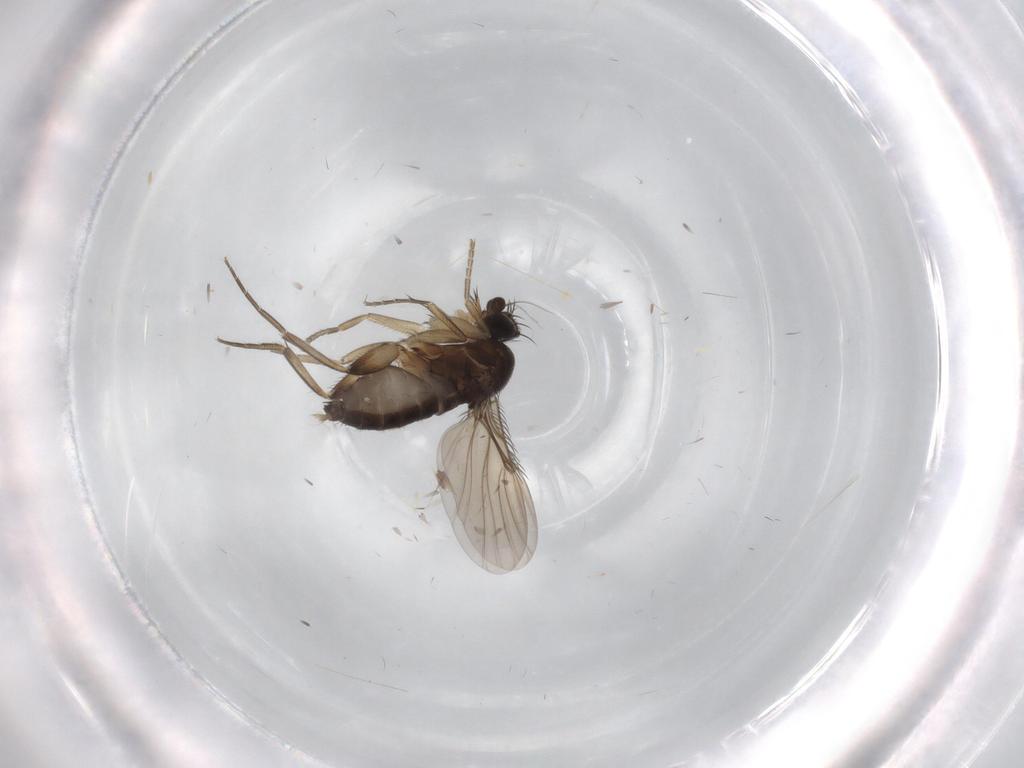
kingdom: Animalia
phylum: Arthropoda
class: Insecta
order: Diptera
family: Phoridae
